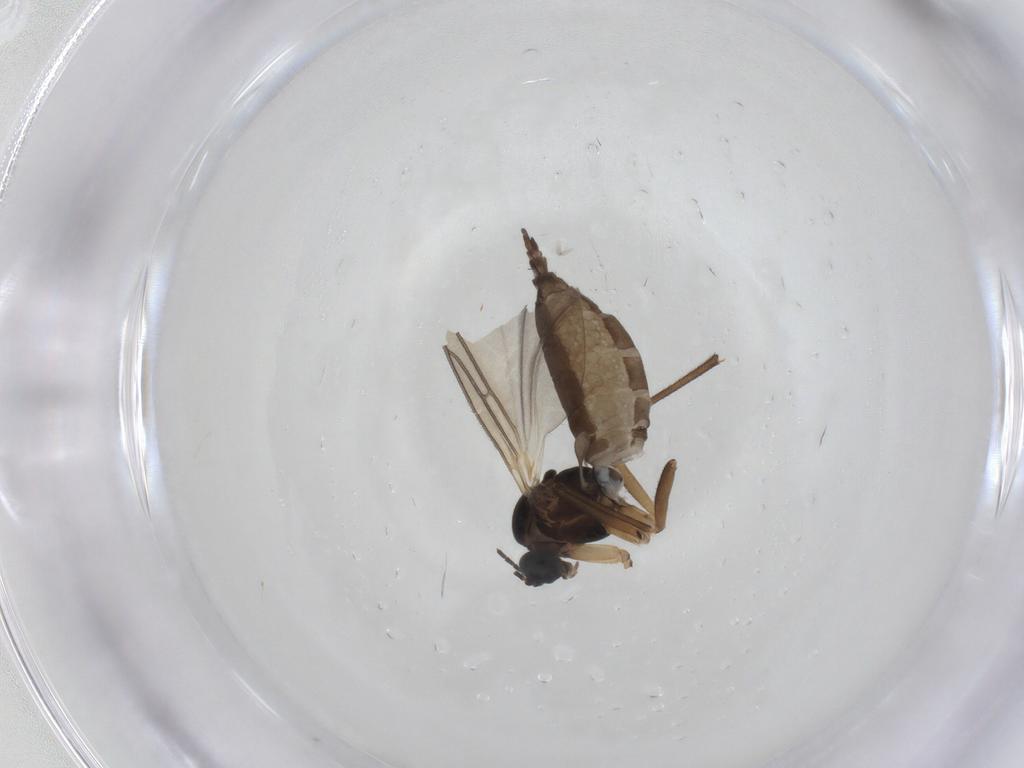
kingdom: Animalia
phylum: Arthropoda
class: Insecta
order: Diptera
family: Sciaridae
